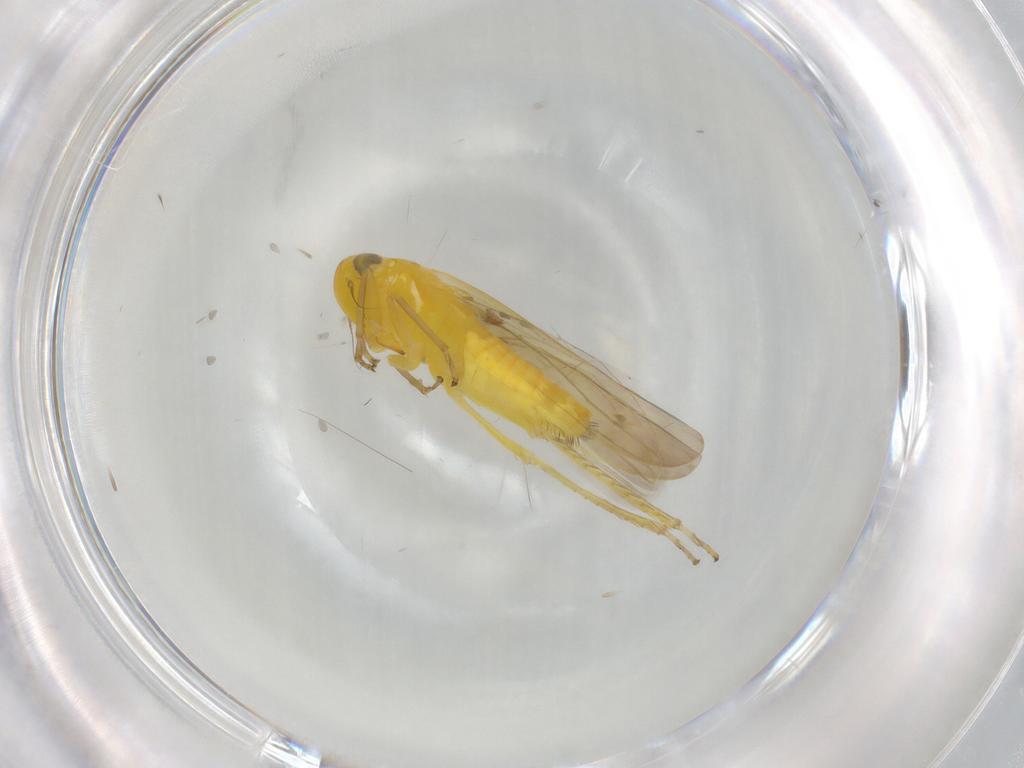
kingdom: Animalia
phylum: Arthropoda
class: Insecta
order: Hemiptera
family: Cicadellidae
